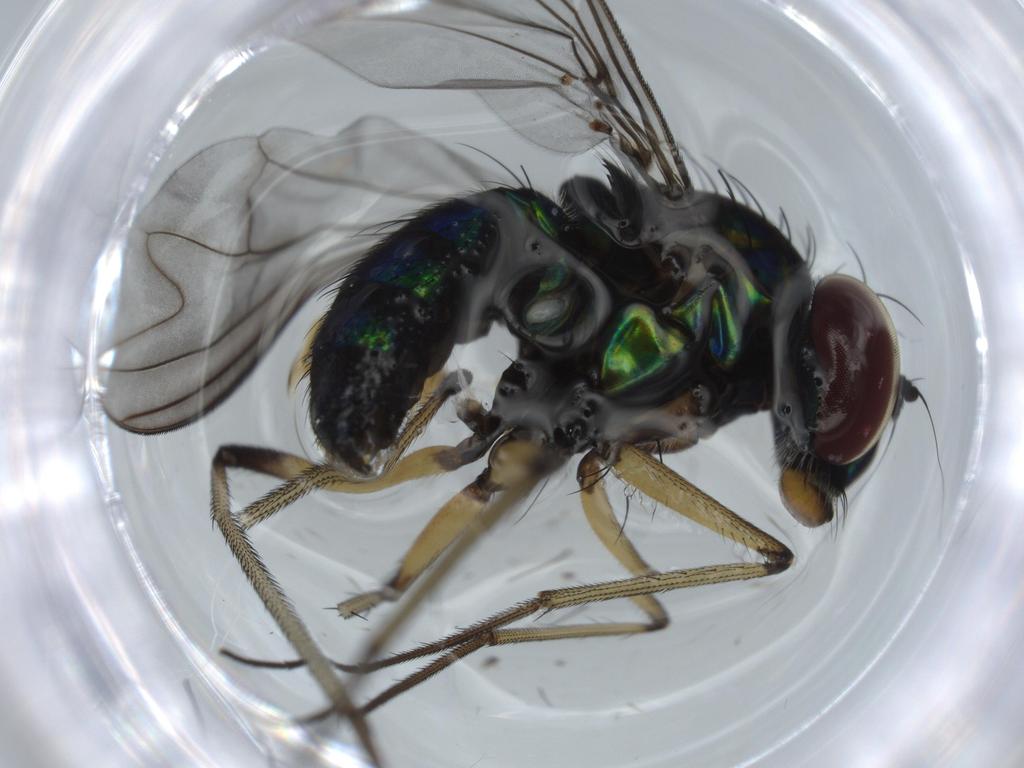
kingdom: Animalia
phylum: Arthropoda
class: Insecta
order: Diptera
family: Dolichopodidae
